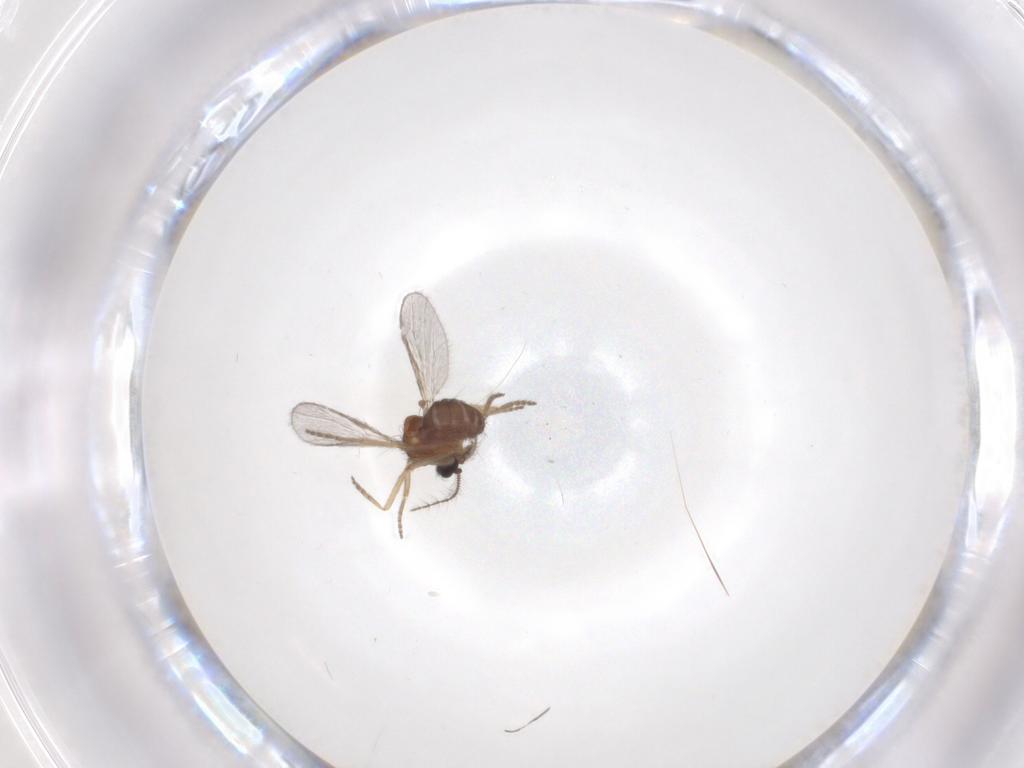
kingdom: Animalia
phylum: Arthropoda
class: Insecta
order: Diptera
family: Ceratopogonidae
